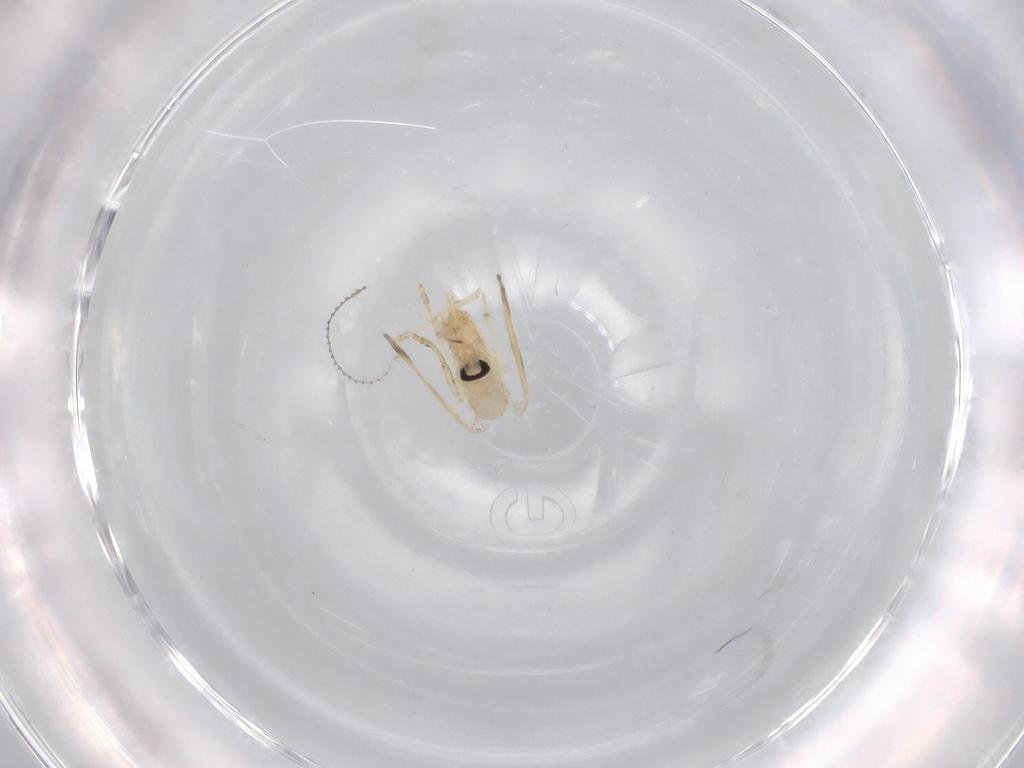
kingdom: Animalia
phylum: Arthropoda
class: Insecta
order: Diptera
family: Psychodidae
